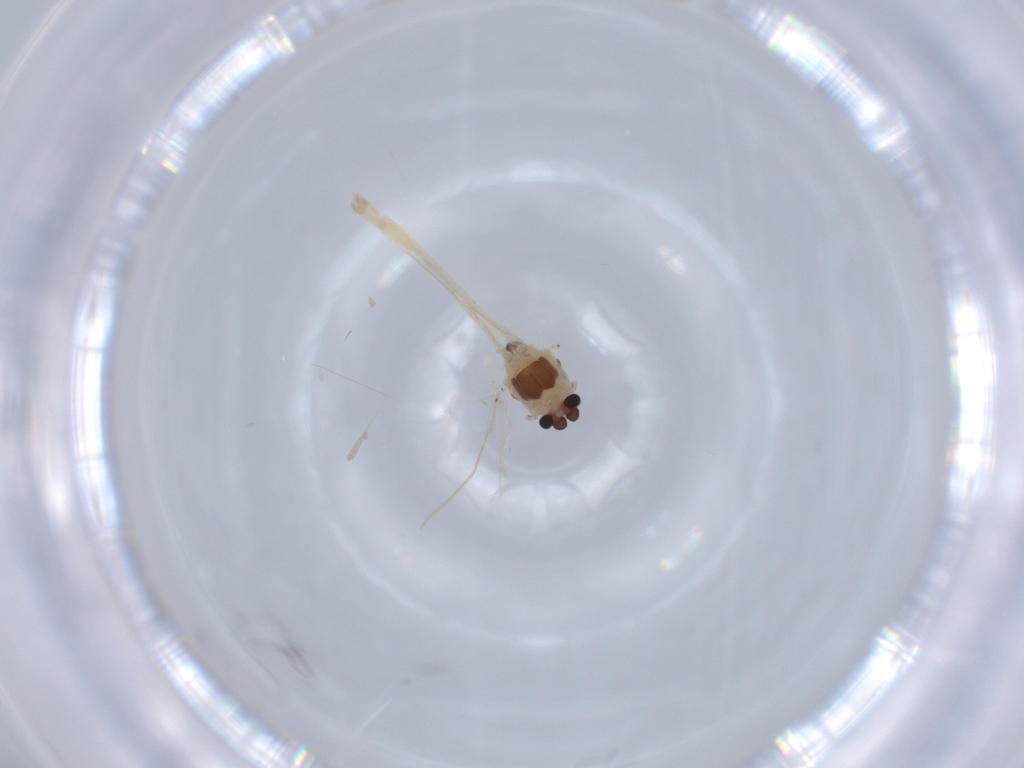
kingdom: Animalia
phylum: Arthropoda
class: Insecta
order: Diptera
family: Chironomidae
